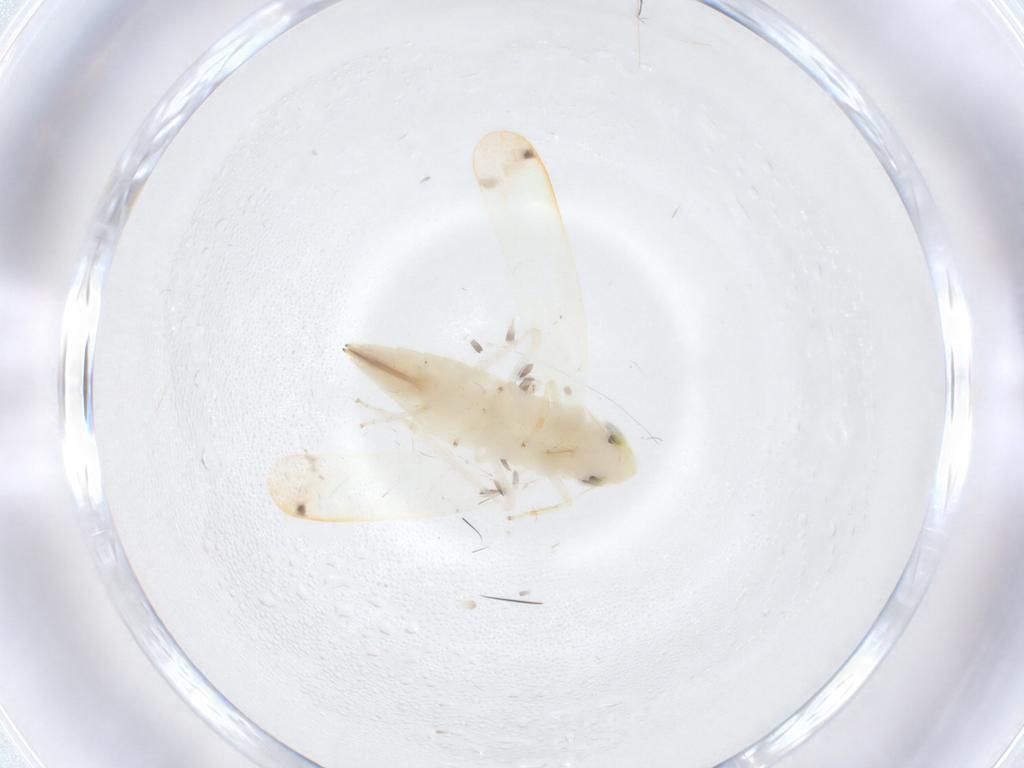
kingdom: Animalia
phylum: Arthropoda
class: Insecta
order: Hemiptera
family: Cicadellidae
